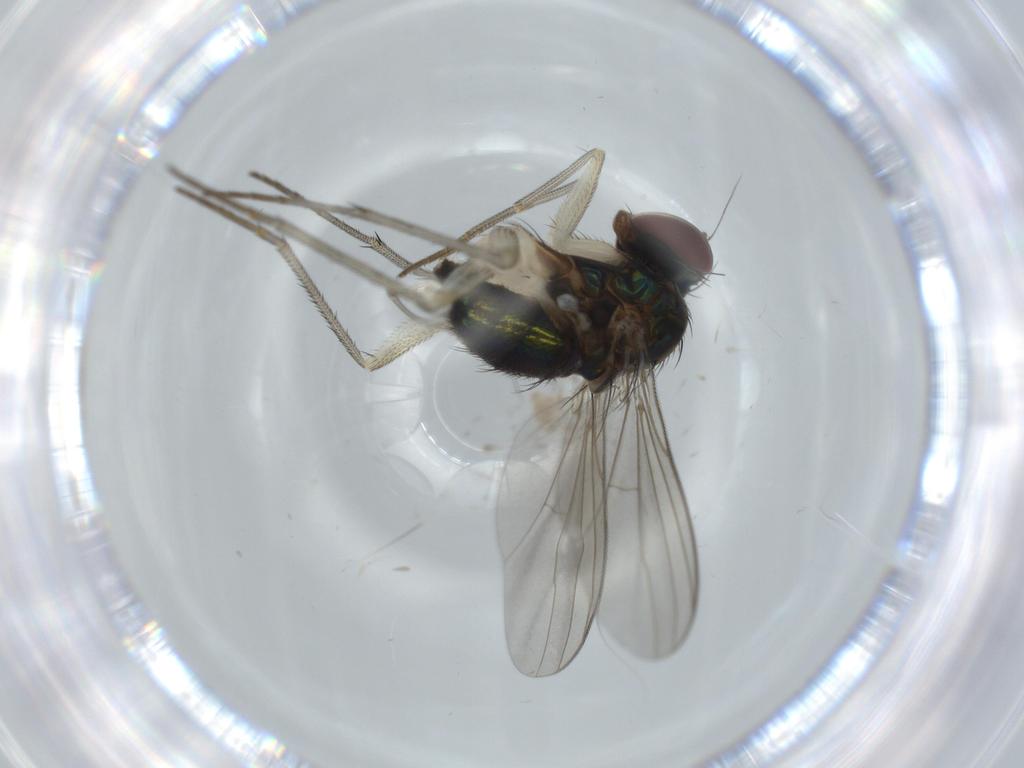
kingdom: Animalia
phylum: Arthropoda
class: Insecta
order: Diptera
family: Dolichopodidae
